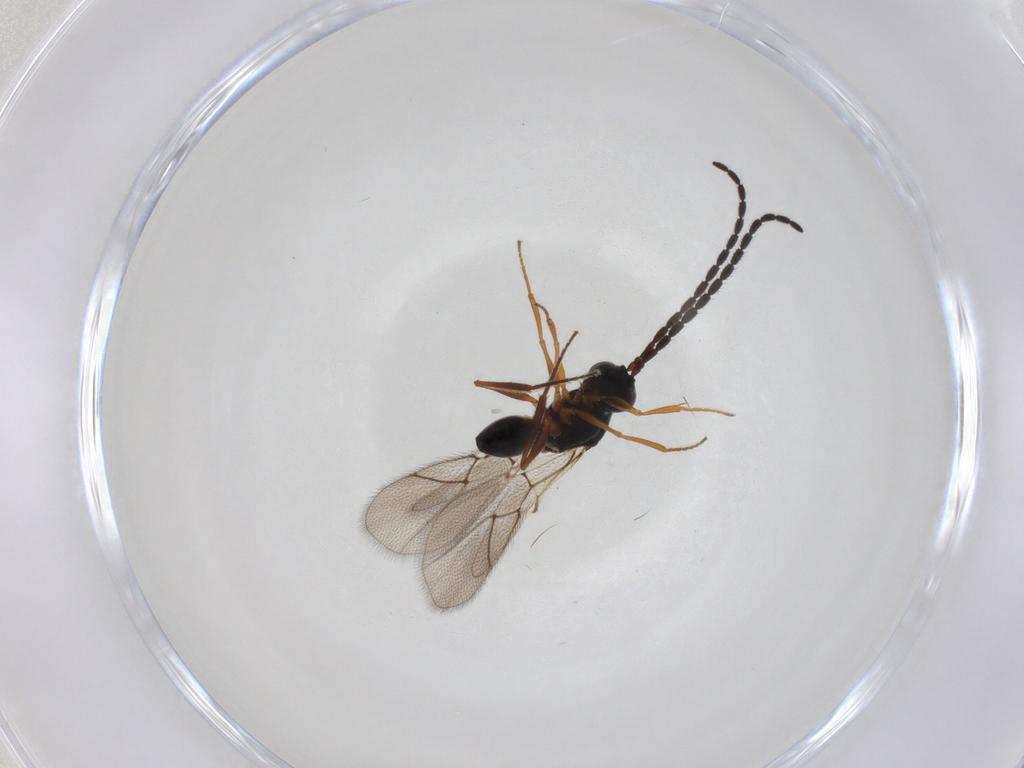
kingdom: Animalia
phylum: Arthropoda
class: Insecta
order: Hymenoptera
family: Figitidae
